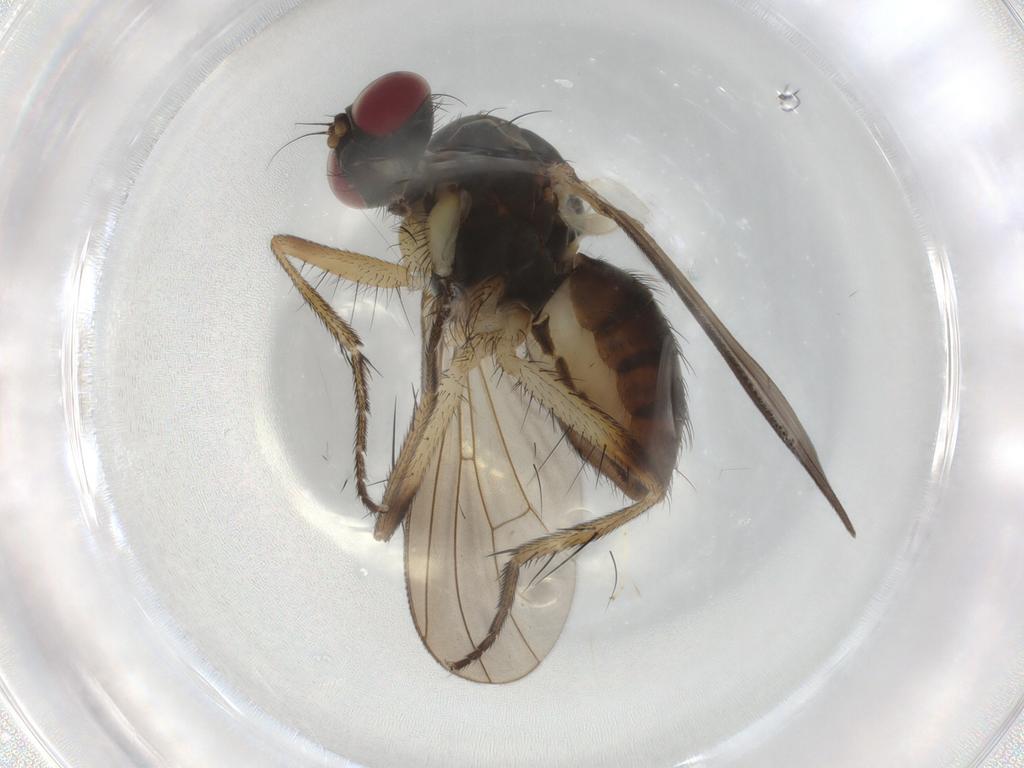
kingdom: Animalia
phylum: Arthropoda
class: Insecta
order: Diptera
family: Muscidae
